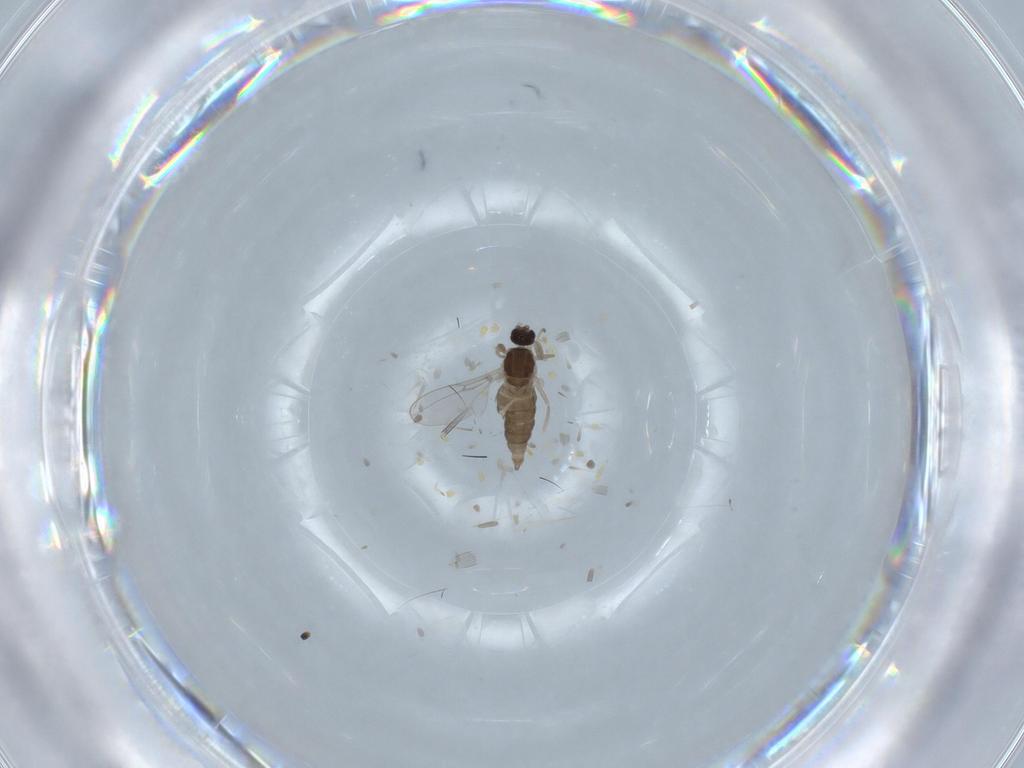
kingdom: Animalia
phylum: Arthropoda
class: Insecta
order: Diptera
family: Cecidomyiidae
